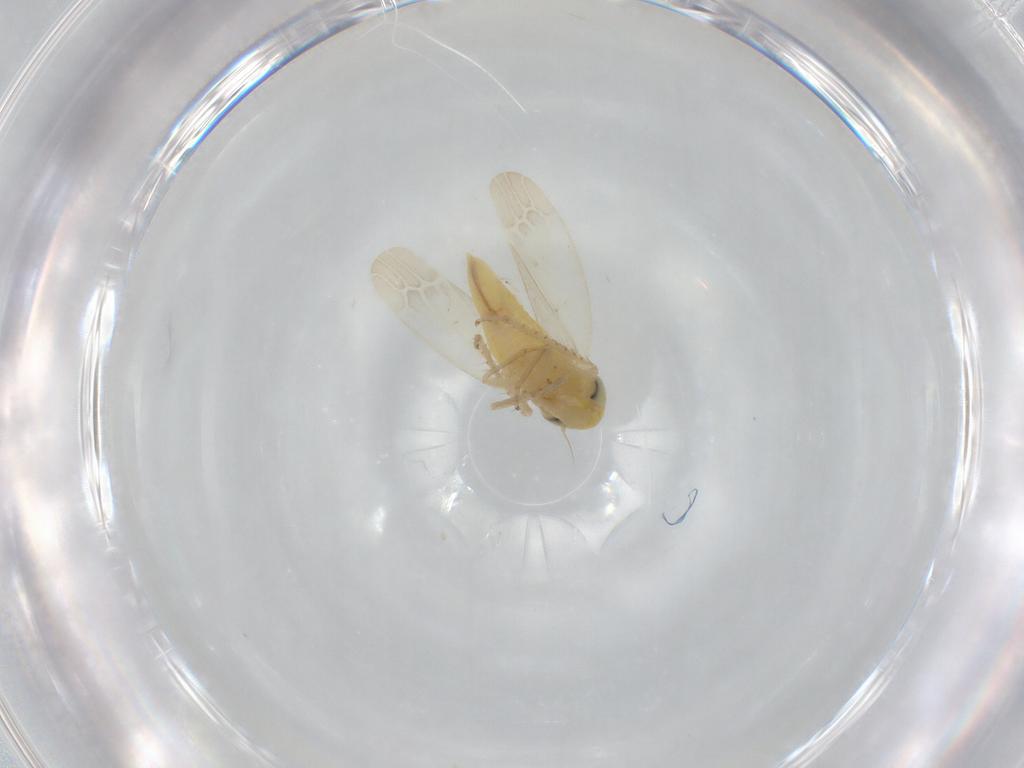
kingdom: Animalia
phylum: Arthropoda
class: Insecta
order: Hemiptera
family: Cicadellidae
